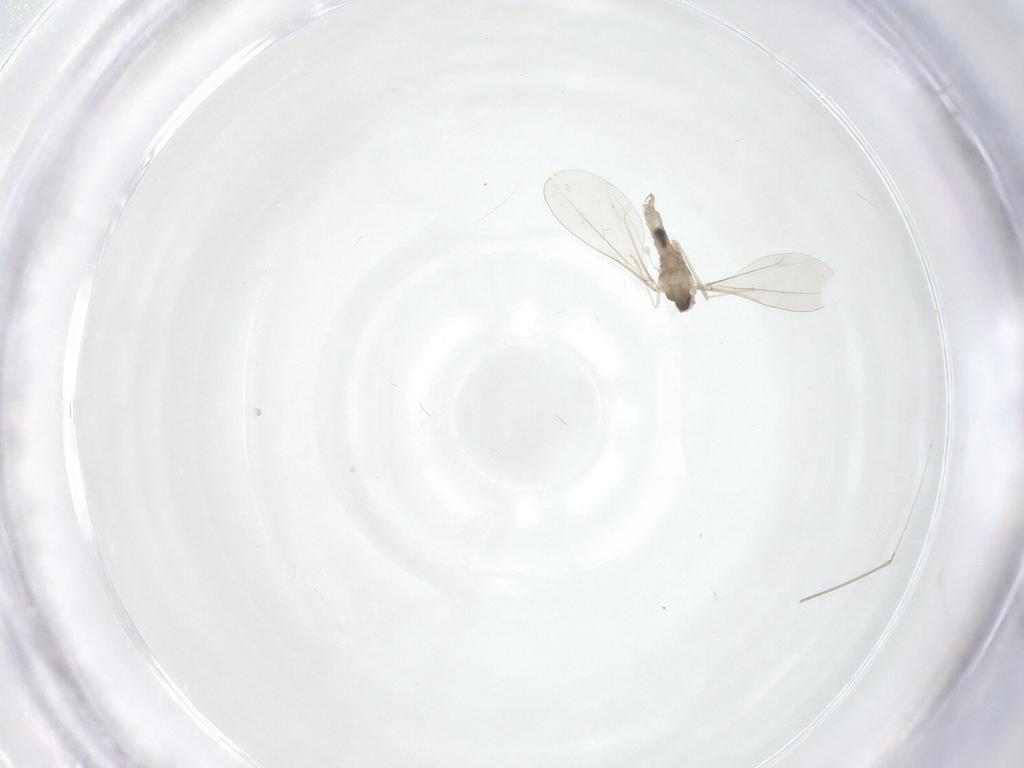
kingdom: Animalia
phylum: Arthropoda
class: Insecta
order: Diptera
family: Cecidomyiidae
